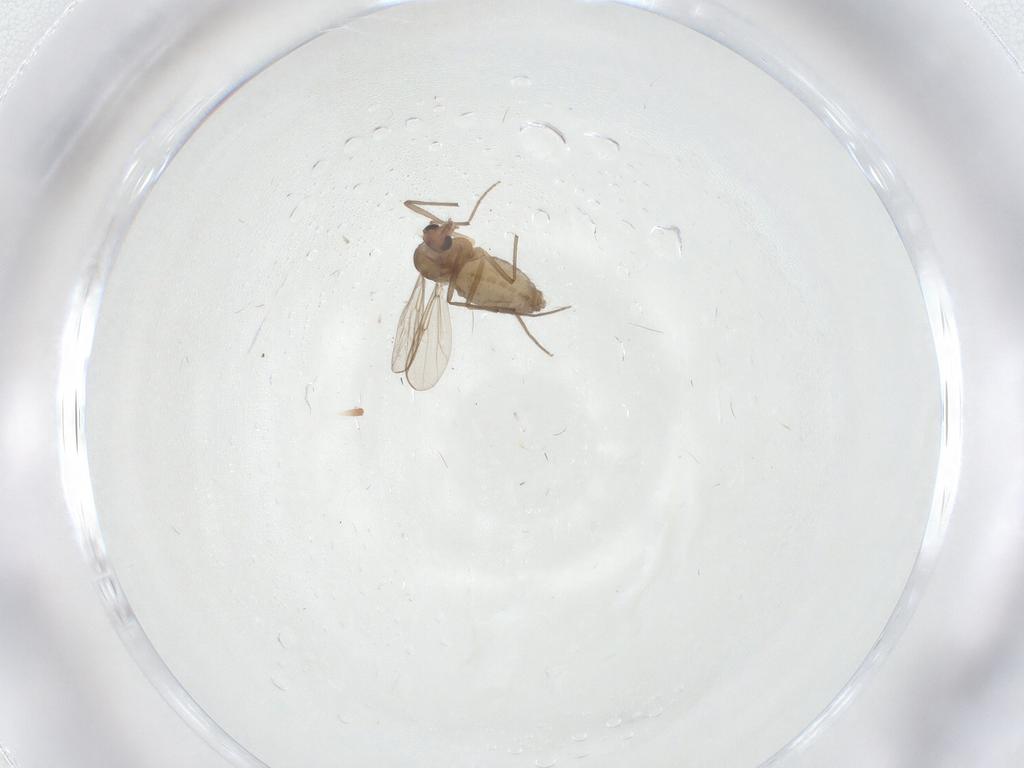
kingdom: Animalia
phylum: Arthropoda
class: Insecta
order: Diptera
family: Chironomidae
